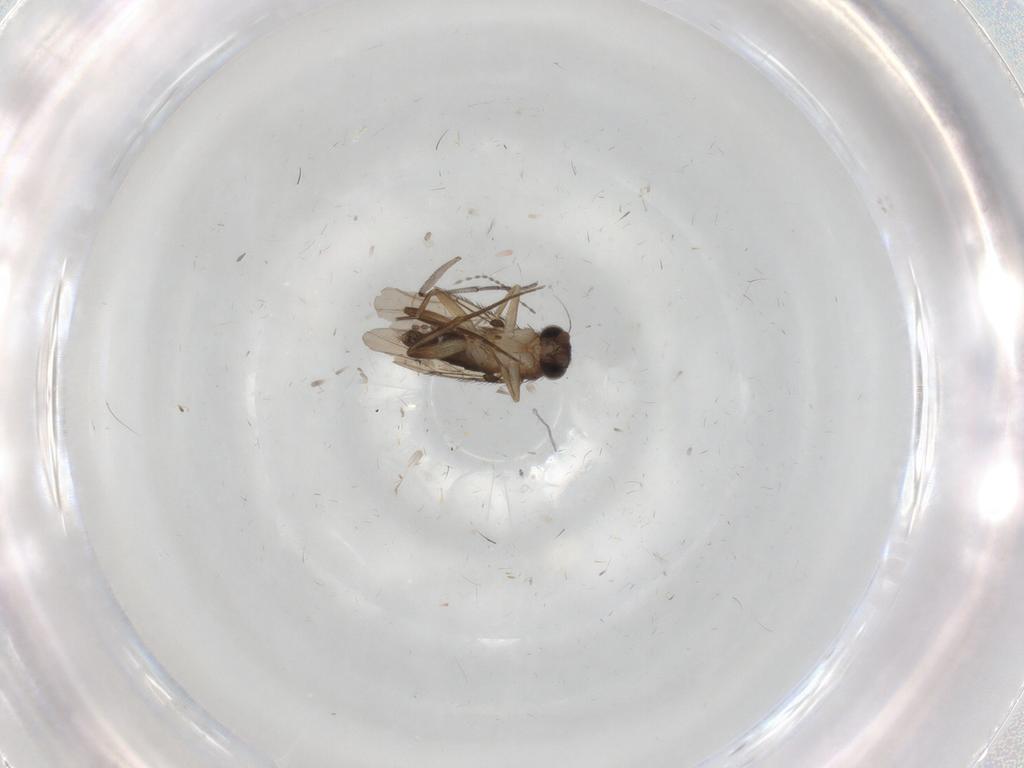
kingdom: Animalia
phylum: Arthropoda
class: Insecta
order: Diptera
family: Phoridae
